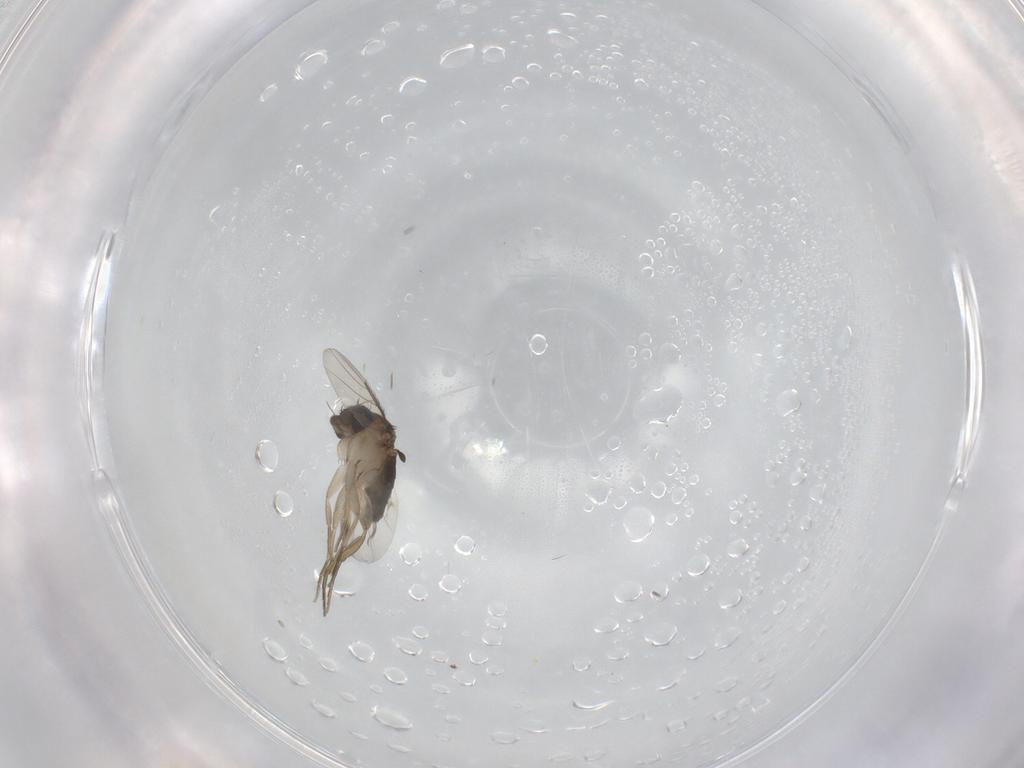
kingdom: Animalia
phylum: Arthropoda
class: Insecta
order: Diptera
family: Phoridae
